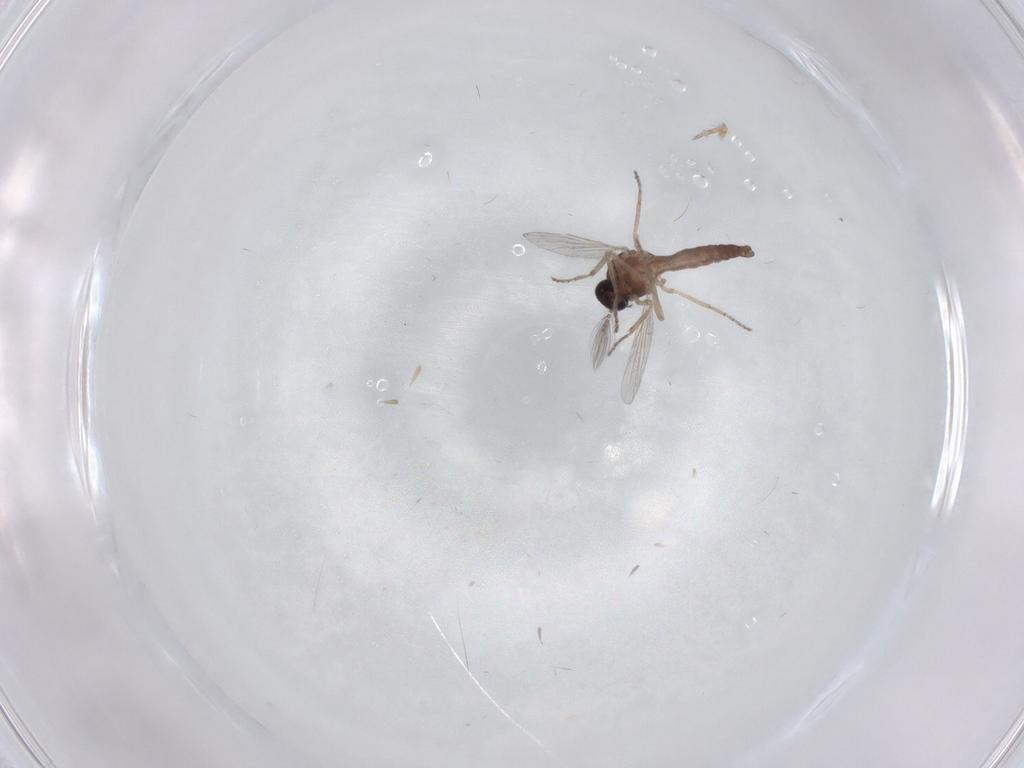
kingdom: Animalia
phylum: Arthropoda
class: Insecta
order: Diptera
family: Ceratopogonidae
